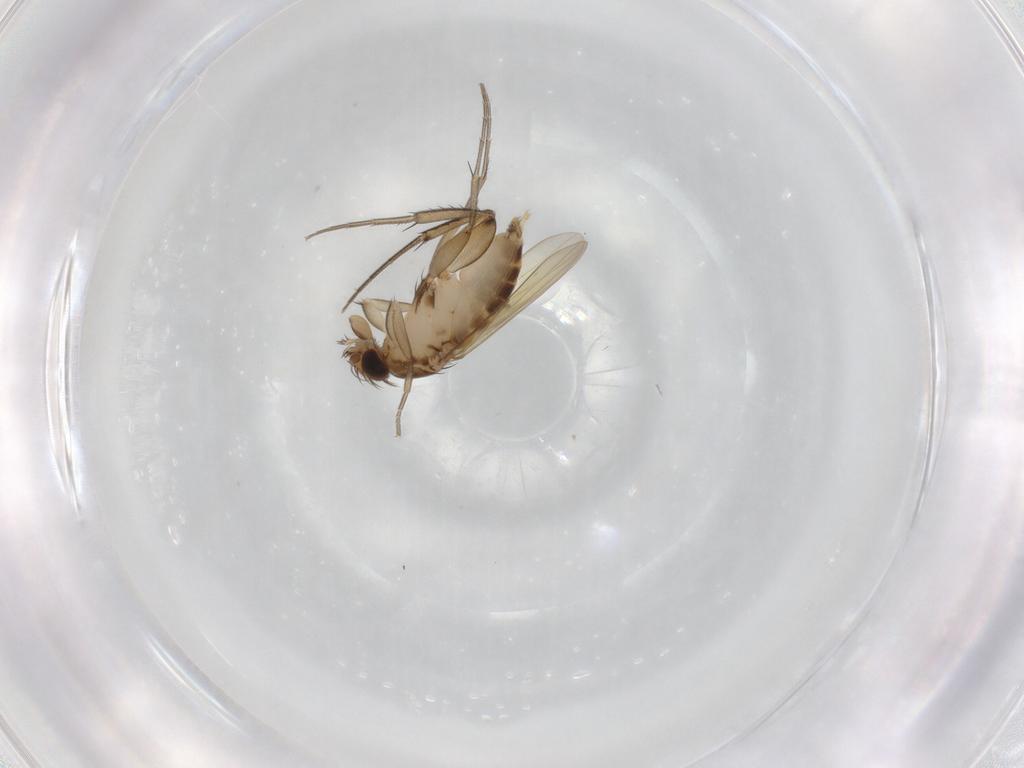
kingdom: Animalia
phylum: Arthropoda
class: Insecta
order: Diptera
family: Phoridae
